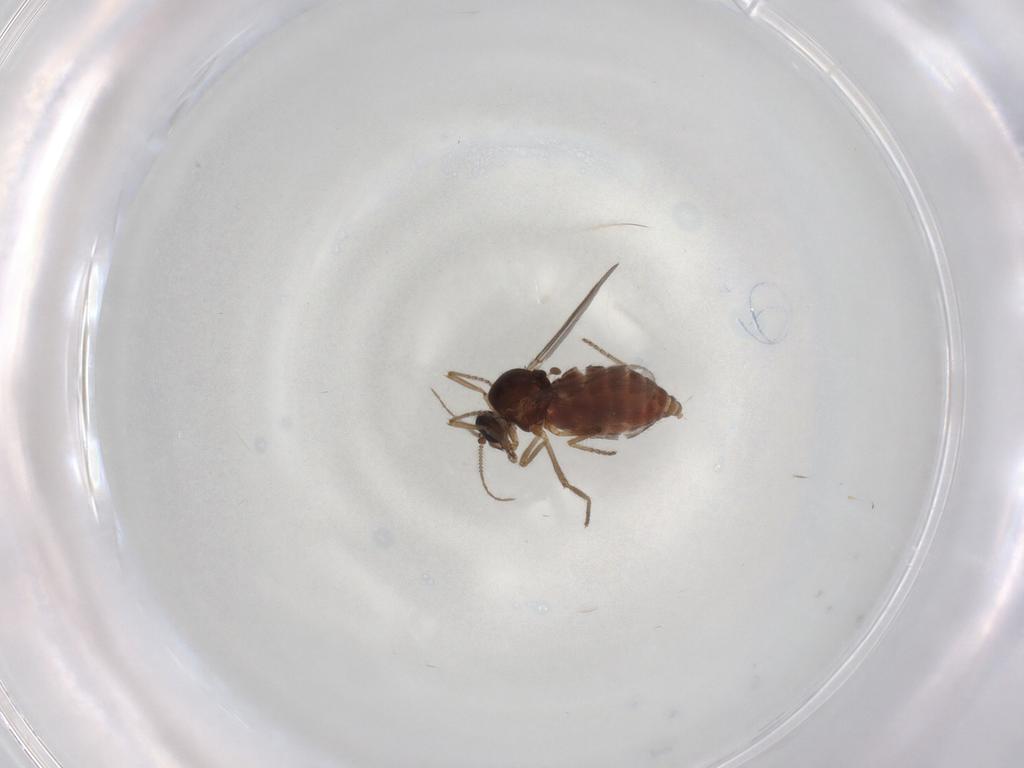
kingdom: Animalia
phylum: Arthropoda
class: Insecta
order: Diptera
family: Ceratopogonidae
